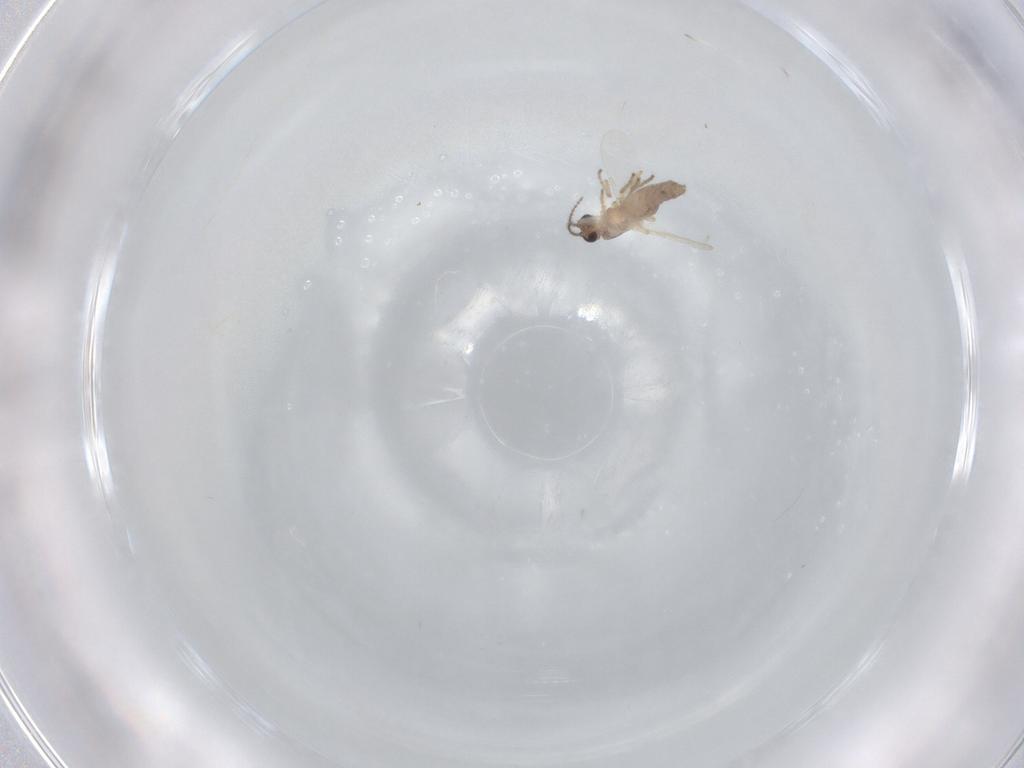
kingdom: Animalia
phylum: Arthropoda
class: Insecta
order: Diptera
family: Ceratopogonidae
